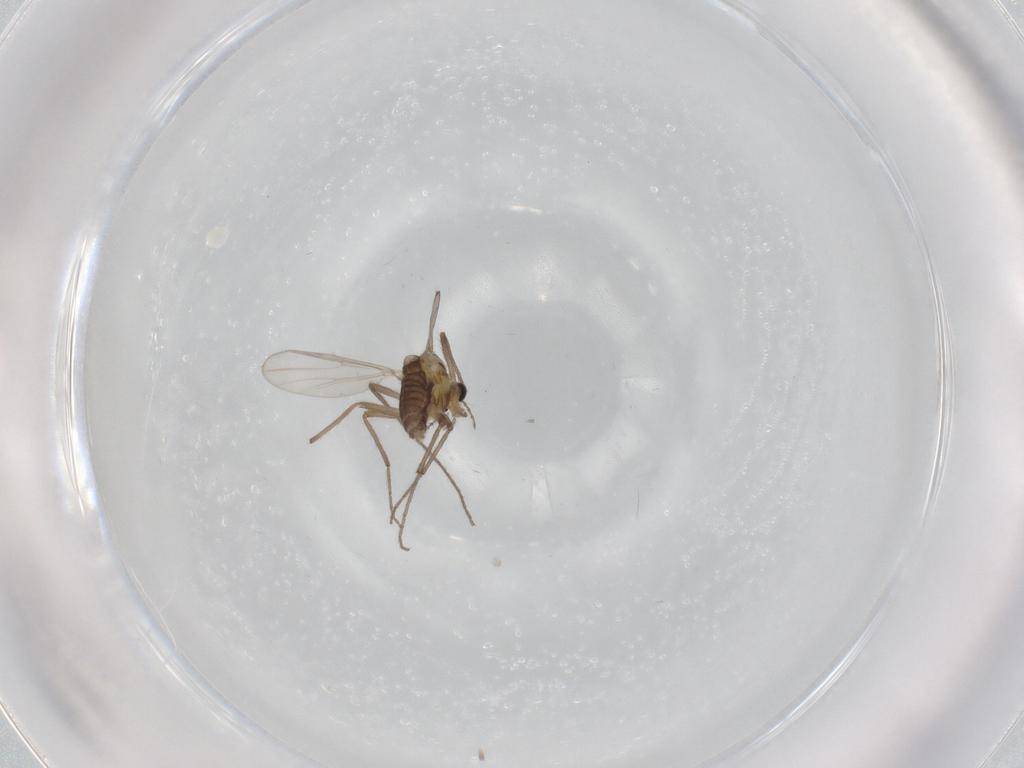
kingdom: Animalia
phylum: Arthropoda
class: Insecta
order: Diptera
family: Chironomidae
